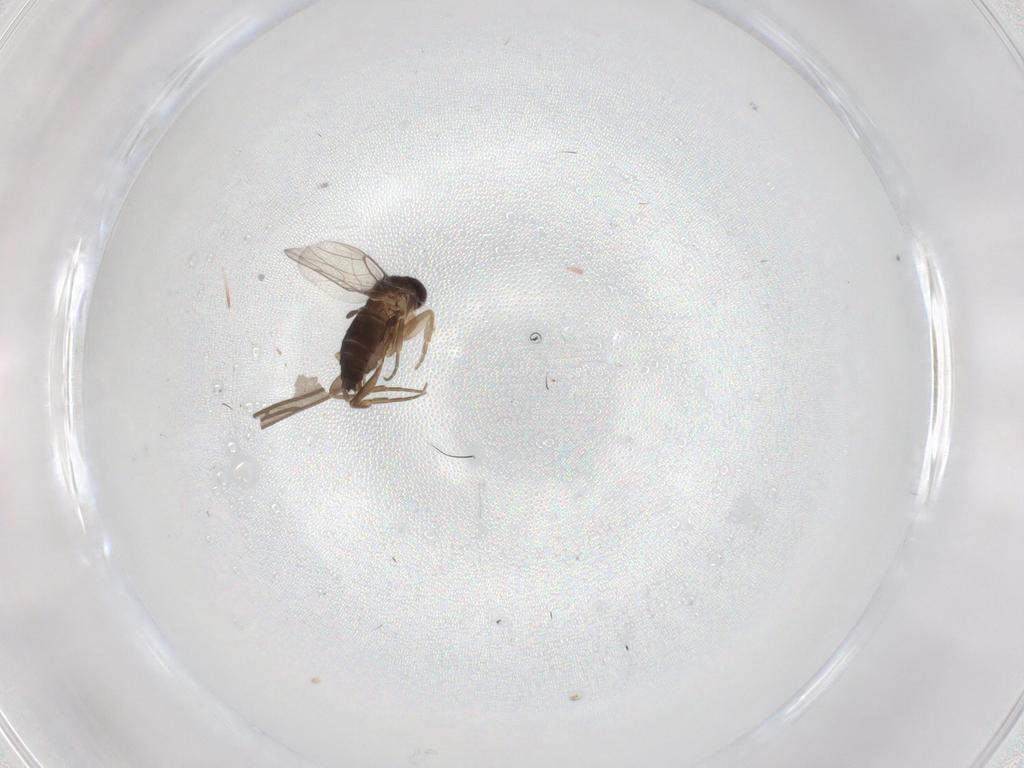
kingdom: Animalia
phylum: Arthropoda
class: Insecta
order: Diptera
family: Phoridae
